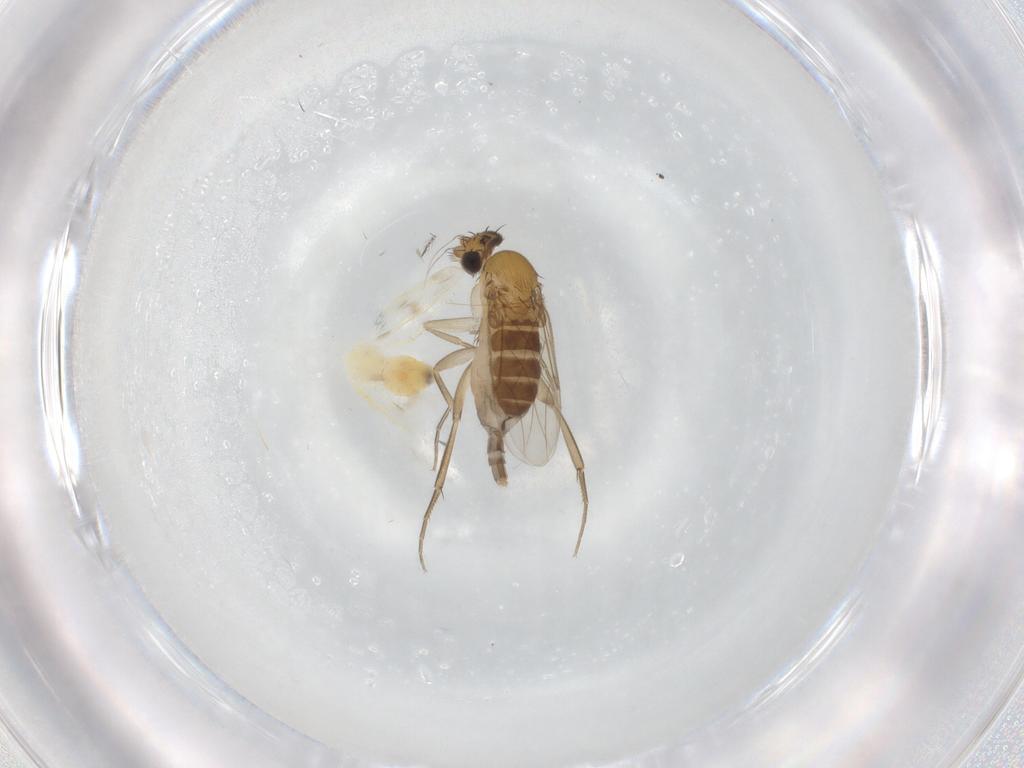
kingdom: Animalia
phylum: Arthropoda
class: Insecta
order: Diptera
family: Phoridae
